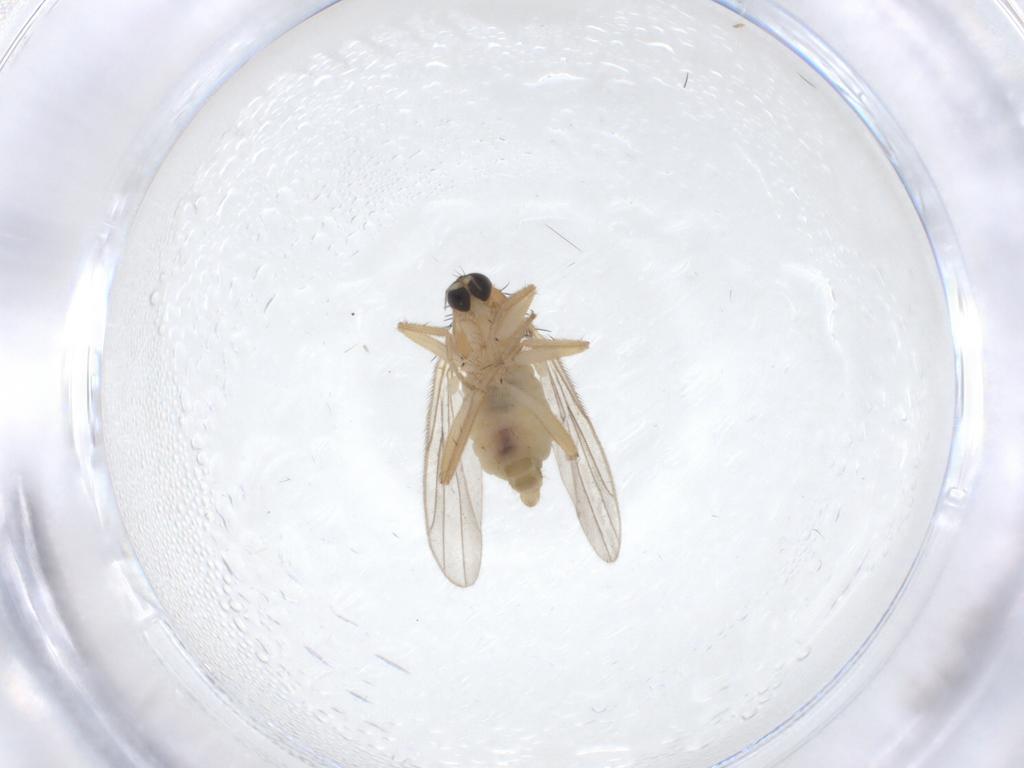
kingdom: Animalia
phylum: Arthropoda
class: Insecta
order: Diptera
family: Hybotidae
